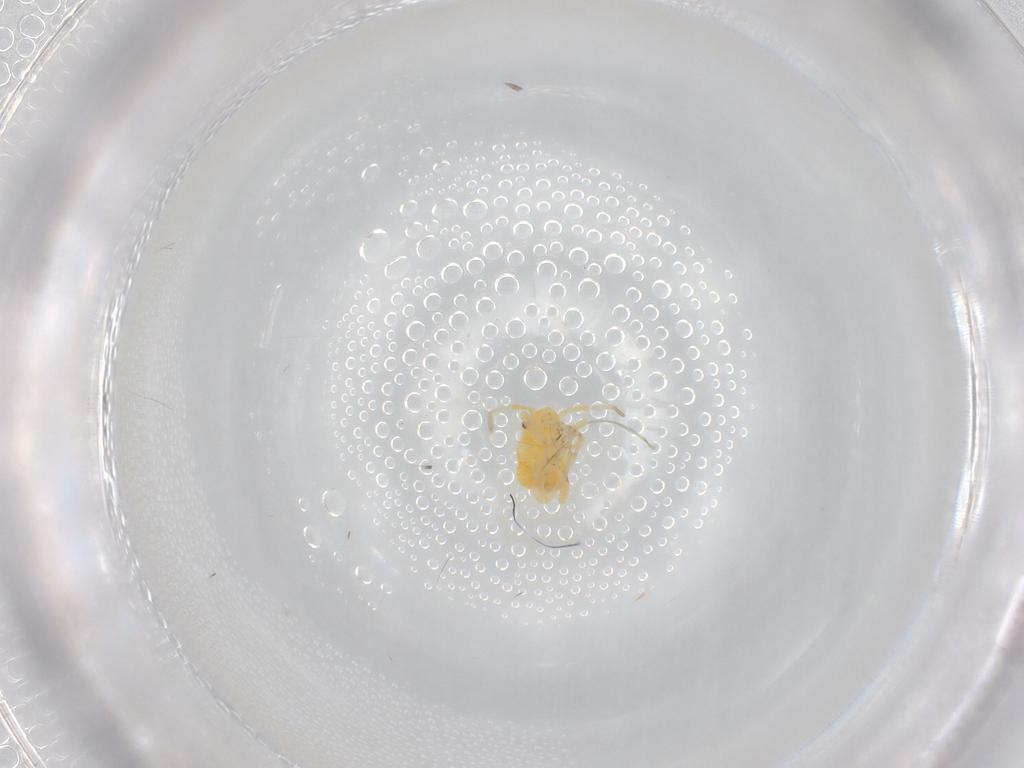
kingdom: Animalia
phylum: Arthropoda
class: Insecta
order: Hemiptera
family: Miridae
